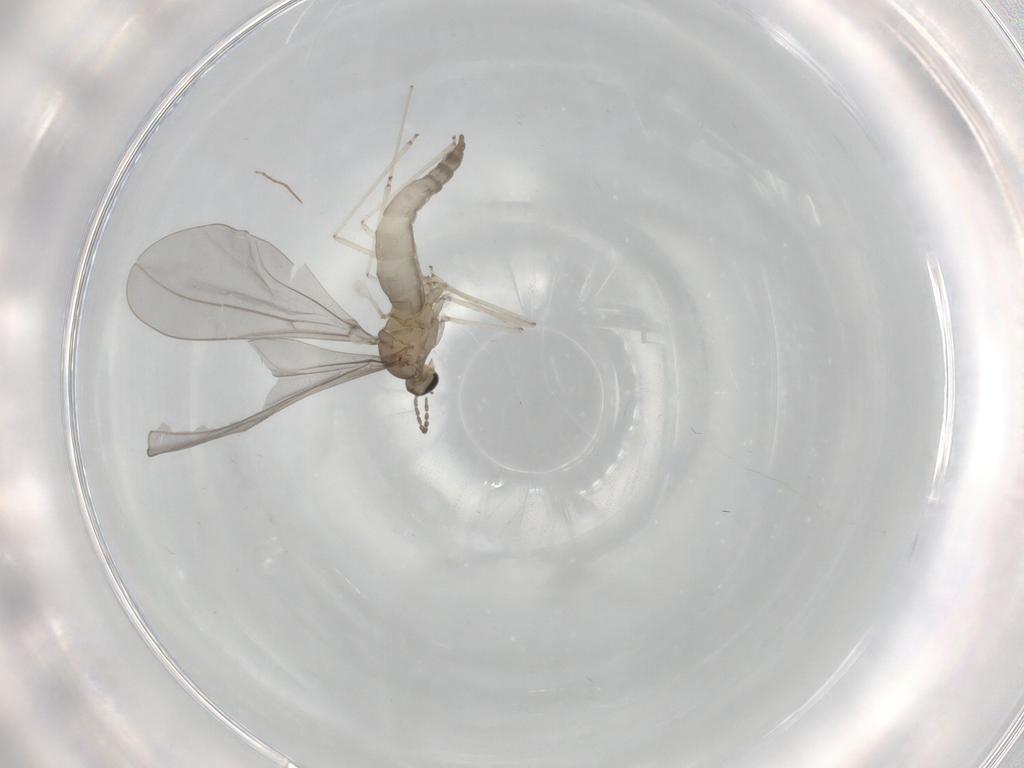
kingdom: Animalia
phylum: Arthropoda
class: Insecta
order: Diptera
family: Cecidomyiidae
